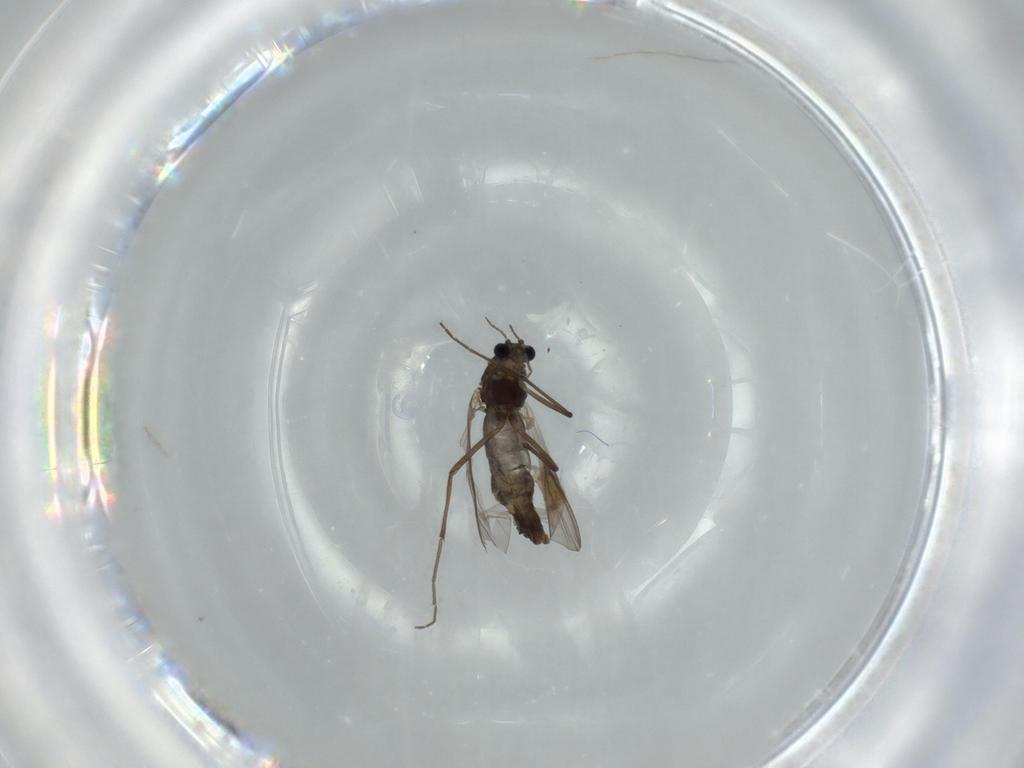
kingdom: Animalia
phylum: Arthropoda
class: Insecta
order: Diptera
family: Chironomidae
